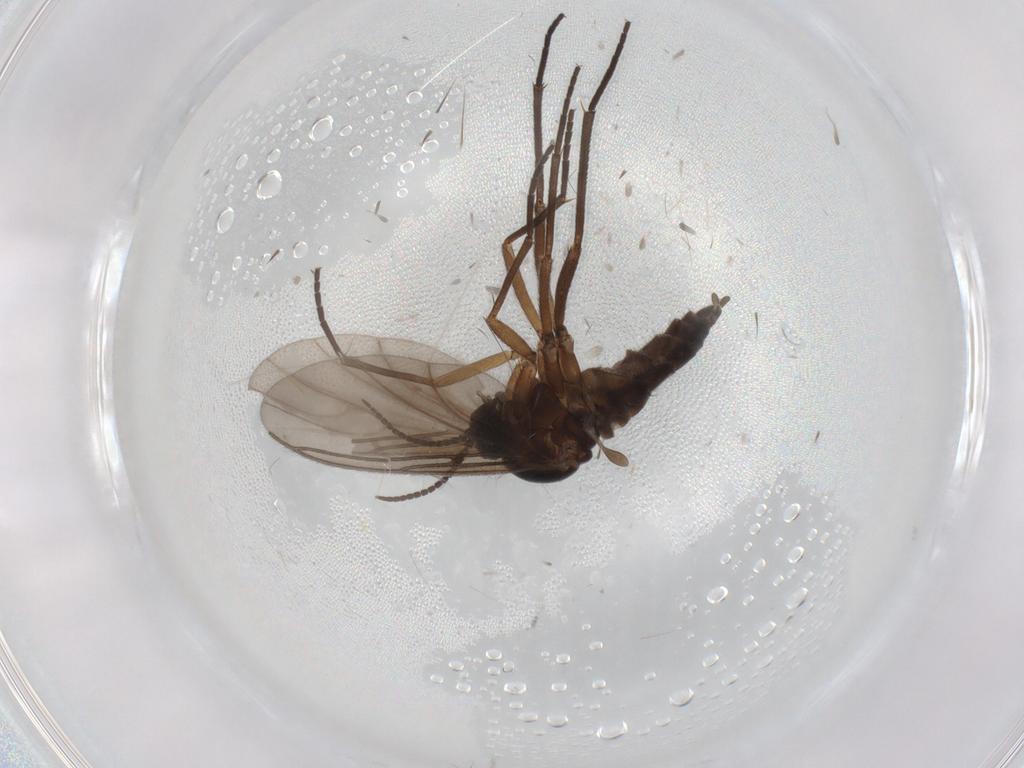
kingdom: Animalia
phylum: Arthropoda
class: Insecta
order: Diptera
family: Sciaridae
